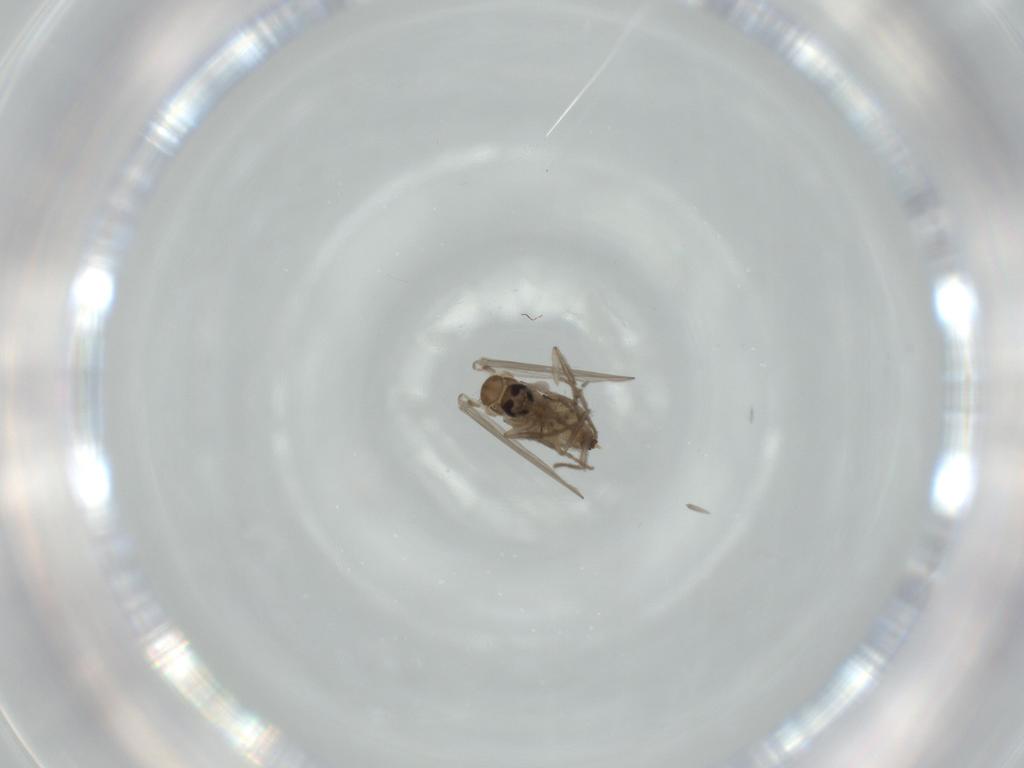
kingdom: Animalia
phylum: Arthropoda
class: Insecta
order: Diptera
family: Psychodidae
